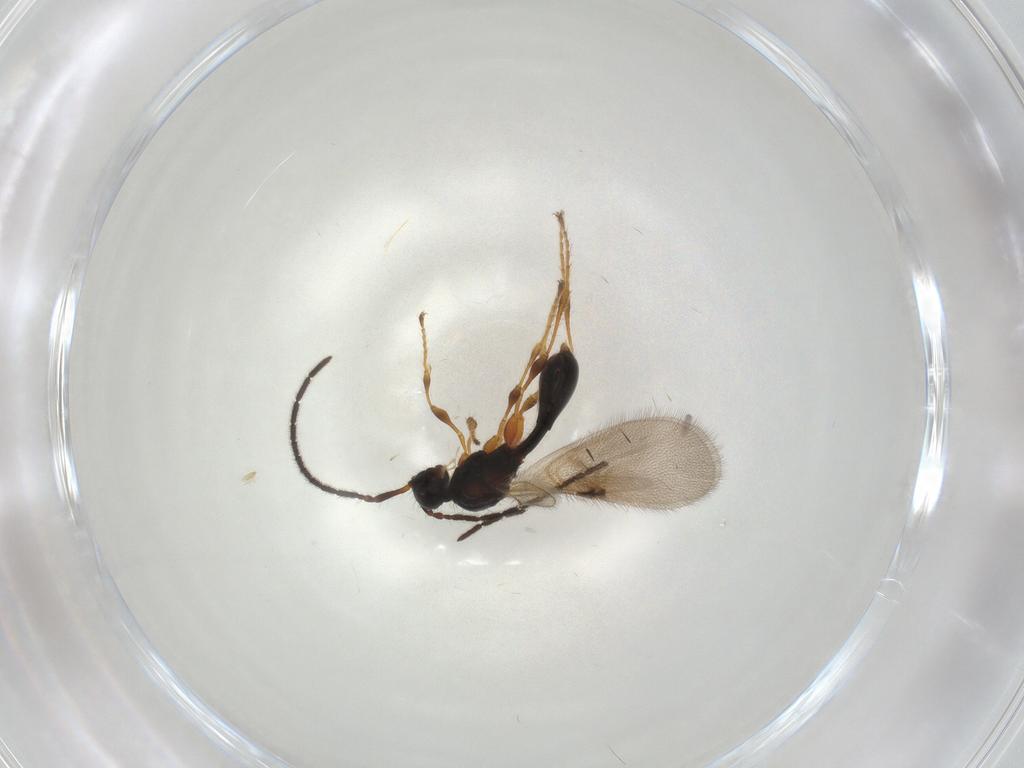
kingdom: Animalia
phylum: Arthropoda
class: Insecta
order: Hymenoptera
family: Diapriidae
